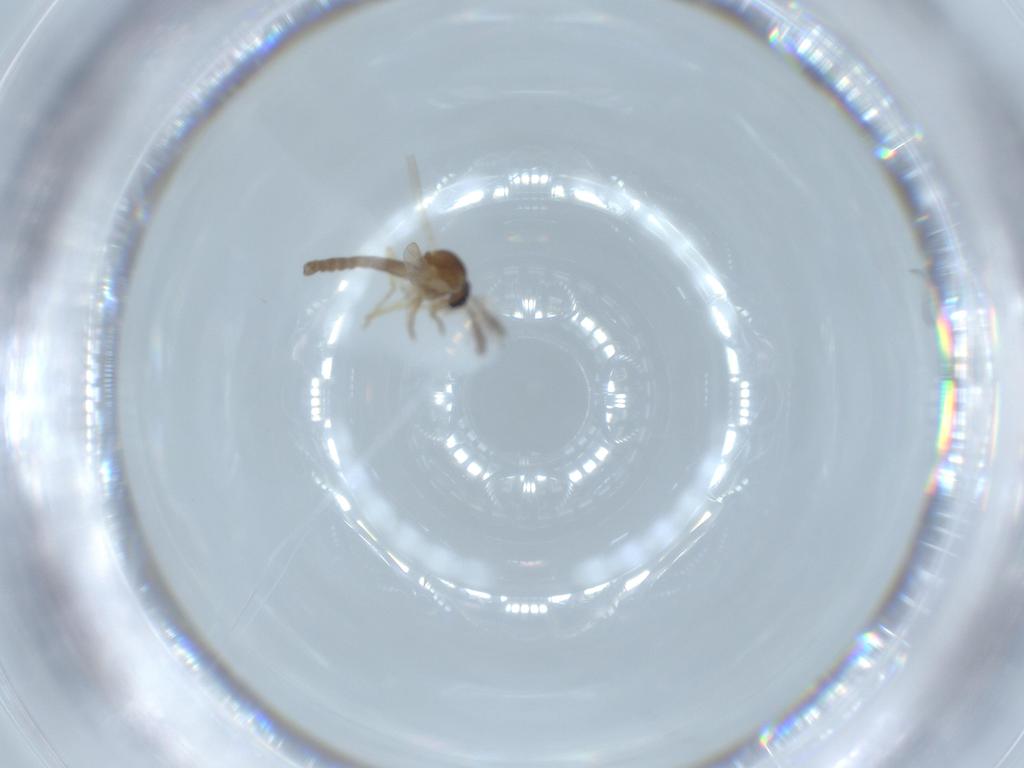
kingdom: Animalia
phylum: Arthropoda
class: Insecta
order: Diptera
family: Ceratopogonidae
